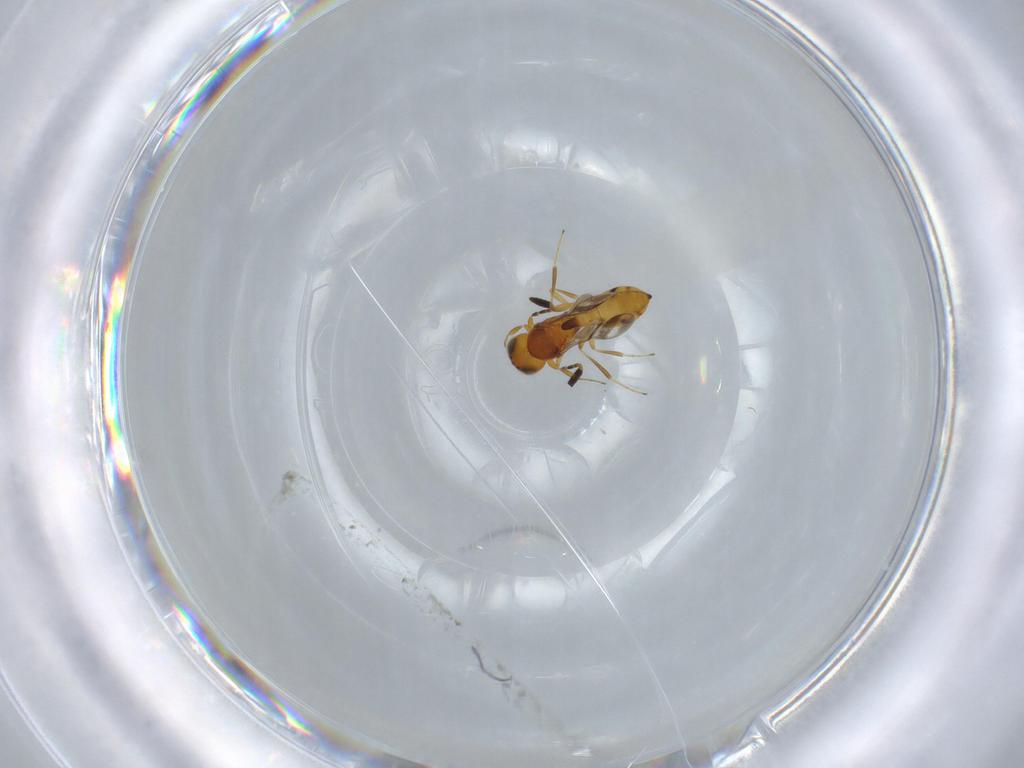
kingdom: Animalia
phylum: Arthropoda
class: Insecta
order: Hymenoptera
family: Scelionidae
